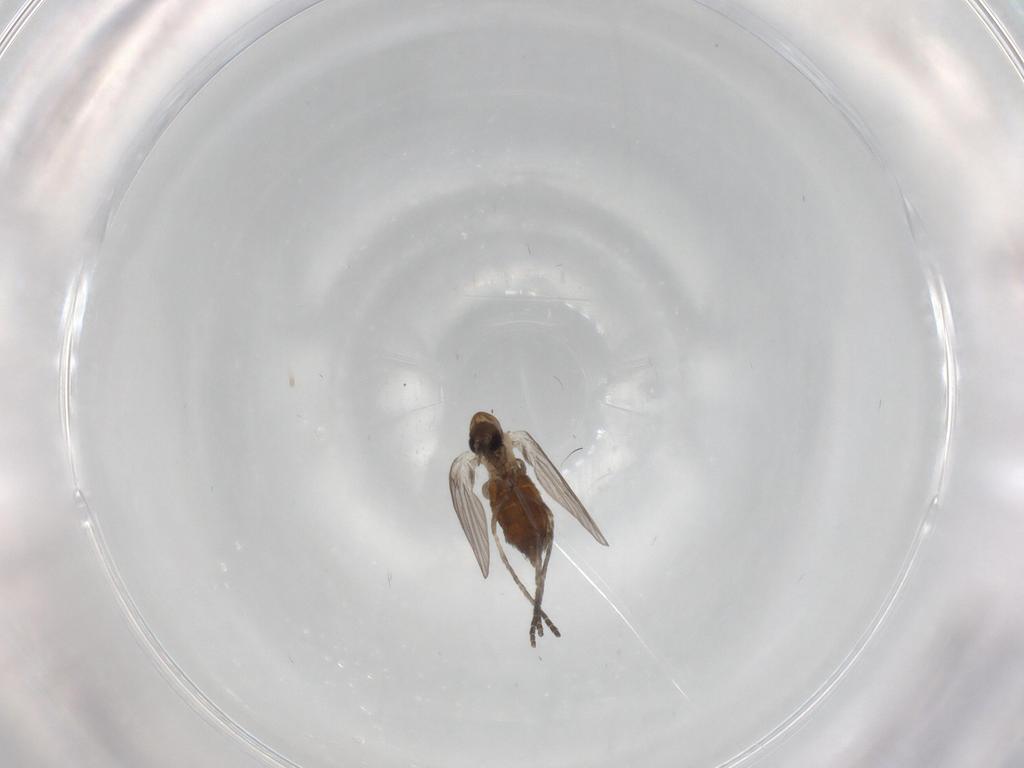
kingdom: Animalia
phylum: Arthropoda
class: Insecta
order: Diptera
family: Psychodidae
